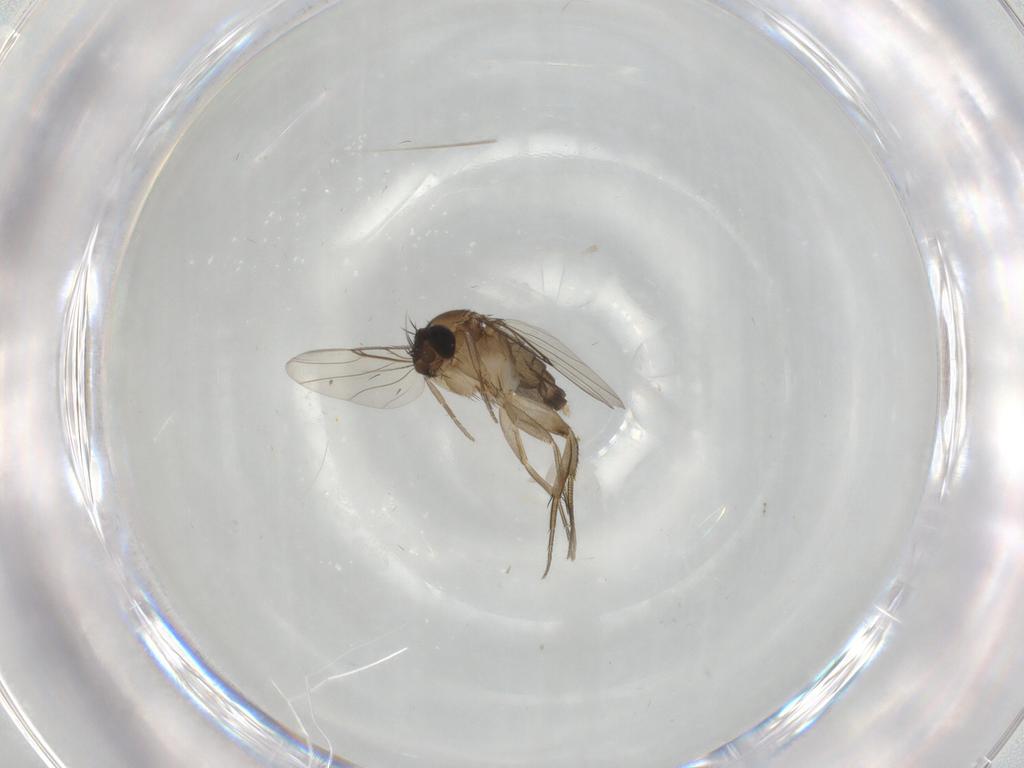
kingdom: Animalia
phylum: Arthropoda
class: Insecta
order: Diptera
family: Phoridae
